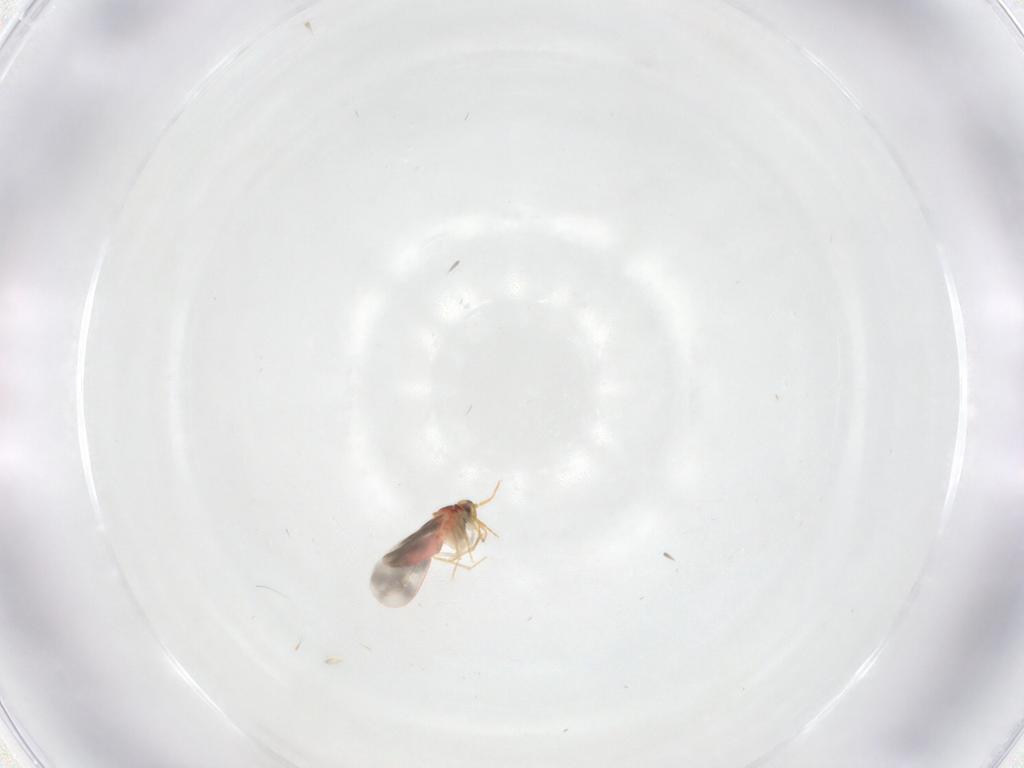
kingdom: Animalia
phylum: Arthropoda
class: Insecta
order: Hemiptera
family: Aleyrodidae
